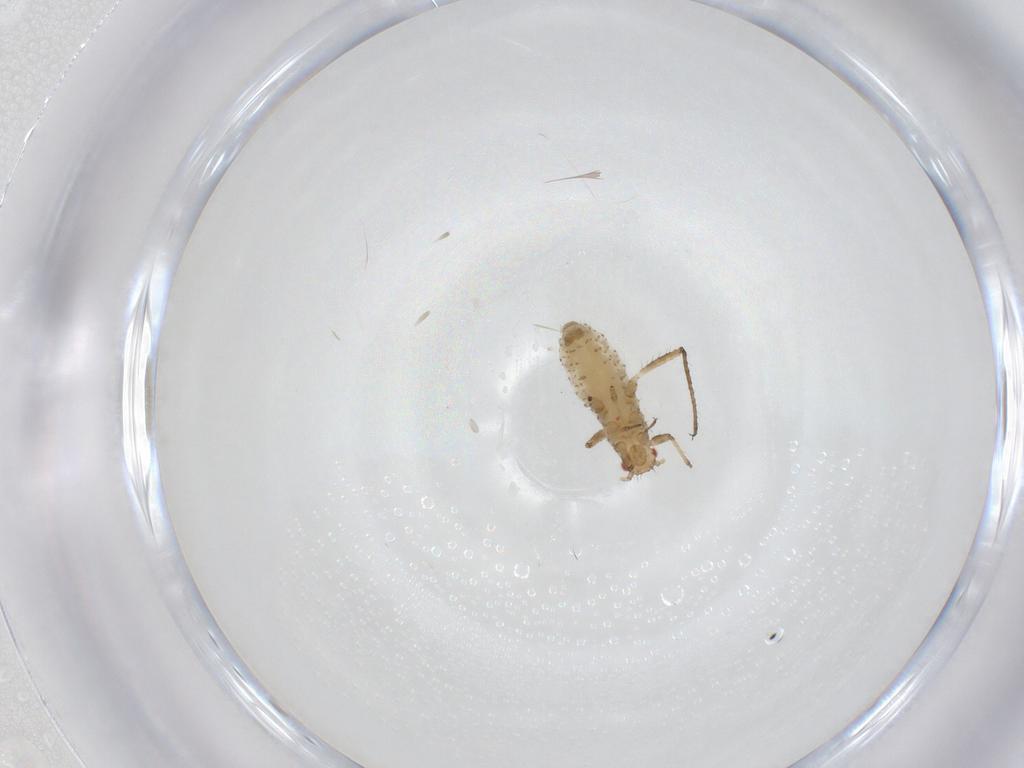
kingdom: Animalia
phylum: Arthropoda
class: Insecta
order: Hemiptera
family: Aphididae
